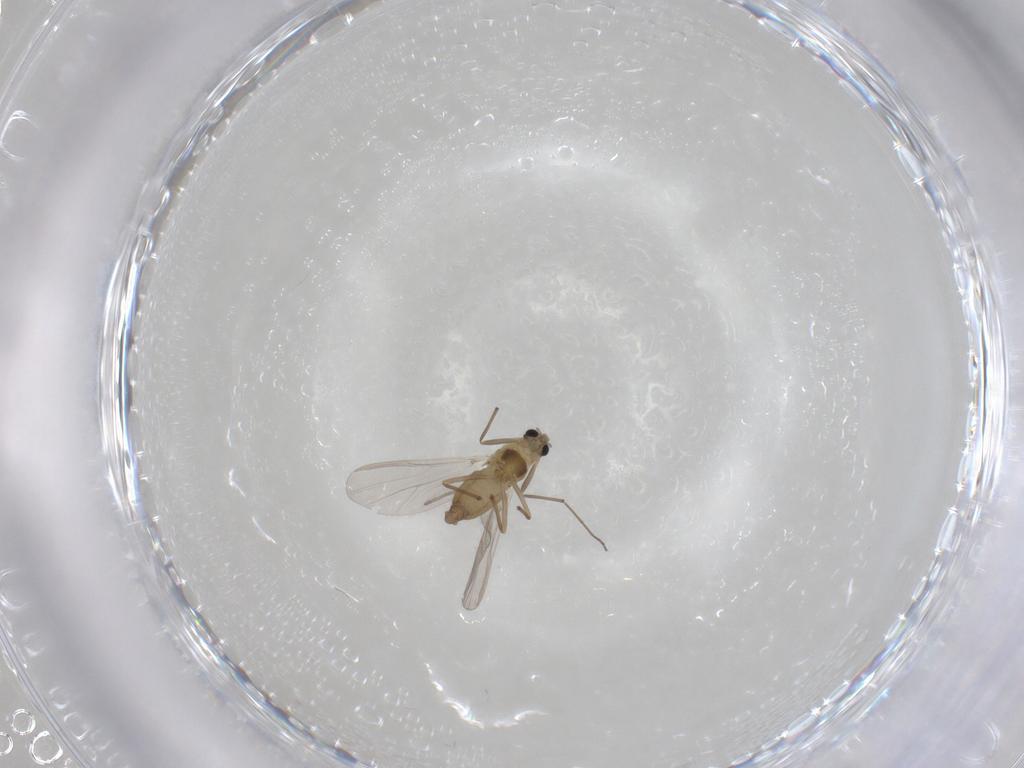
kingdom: Animalia
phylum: Arthropoda
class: Insecta
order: Diptera
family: Chironomidae
